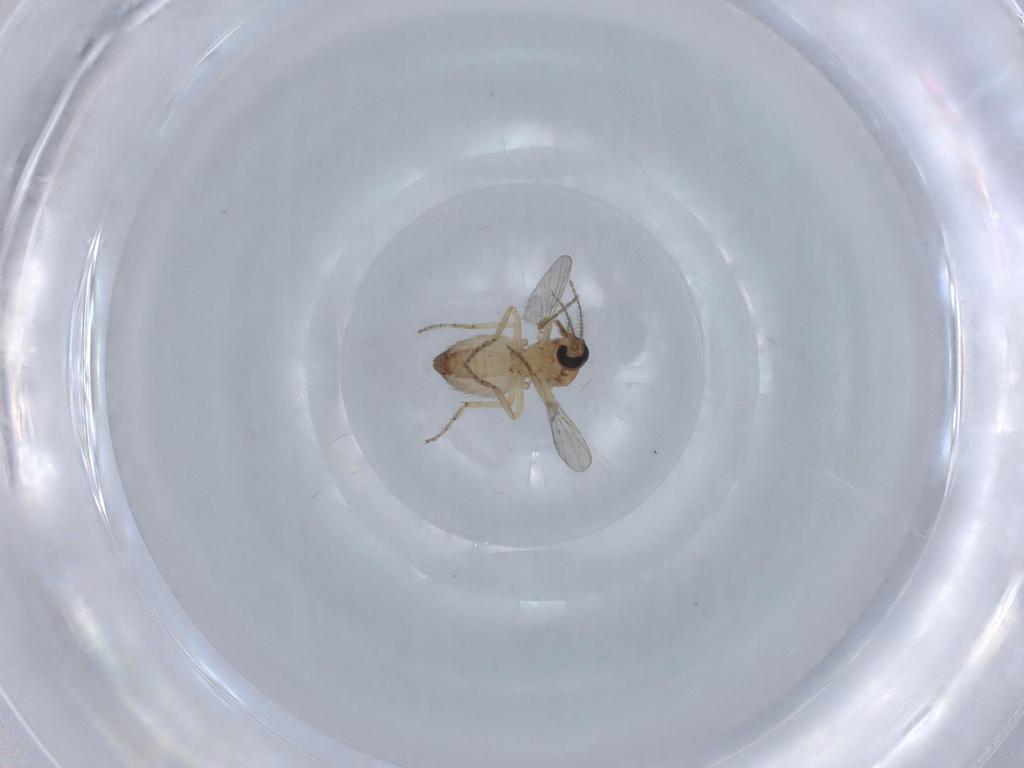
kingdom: Animalia
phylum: Arthropoda
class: Insecta
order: Diptera
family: Ceratopogonidae
